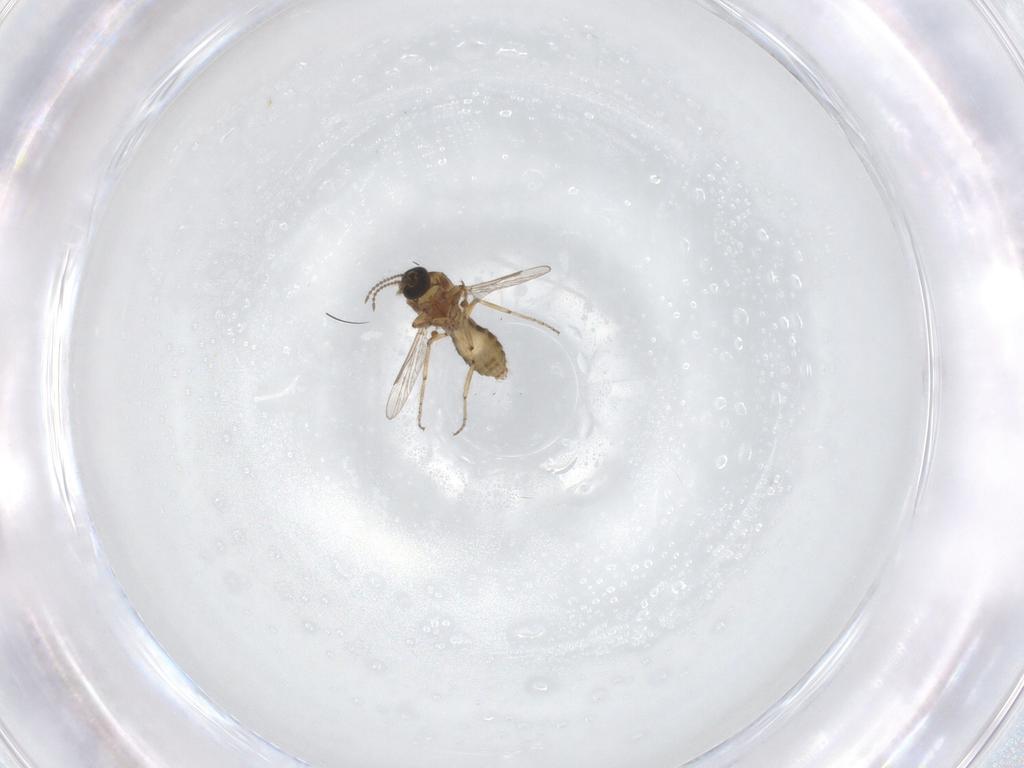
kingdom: Animalia
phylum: Arthropoda
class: Insecta
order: Diptera
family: Ceratopogonidae
